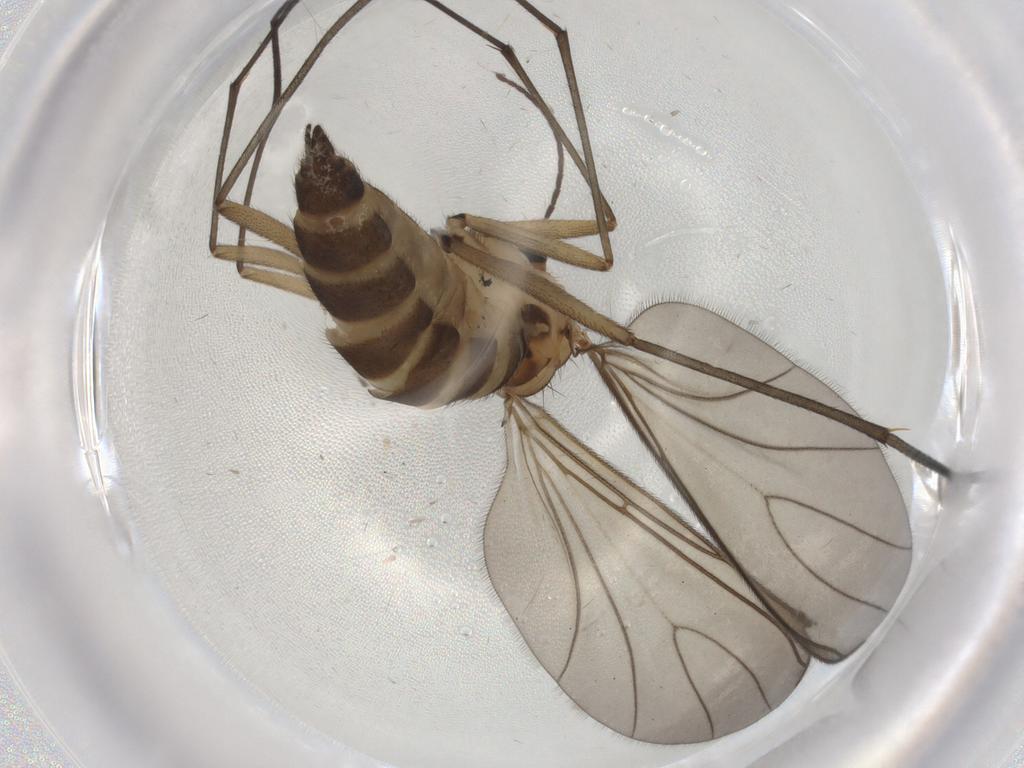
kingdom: Animalia
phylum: Arthropoda
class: Insecta
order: Diptera
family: Sciaridae
